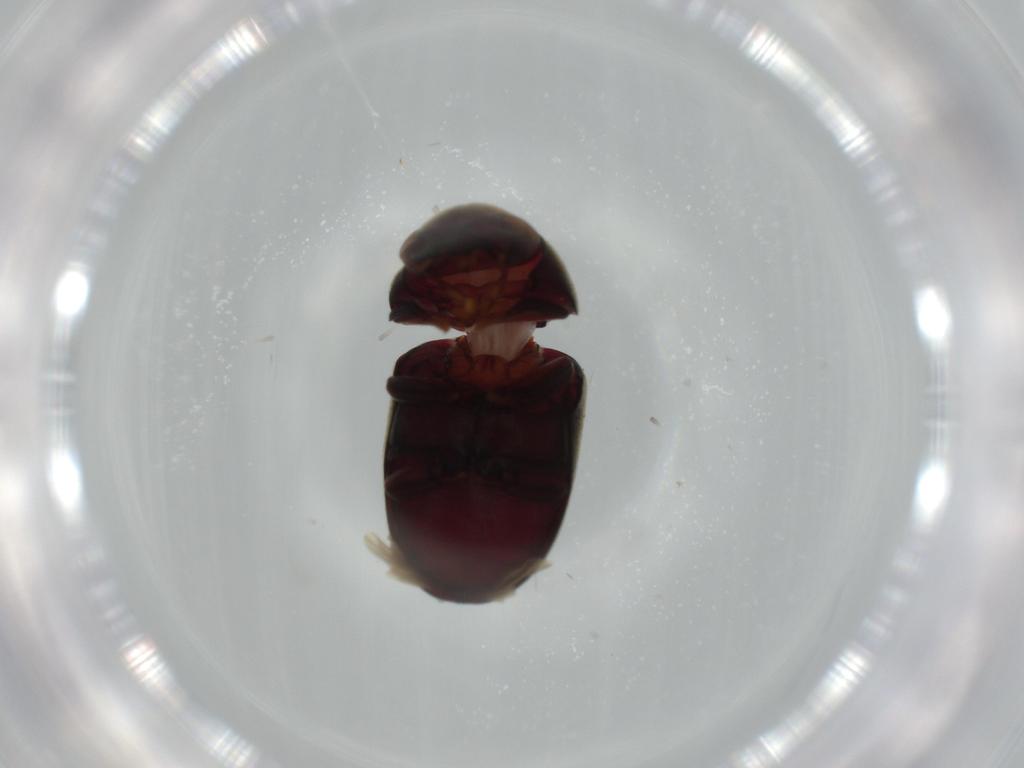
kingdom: Animalia
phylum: Arthropoda
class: Insecta
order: Coleoptera
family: Ptinidae
